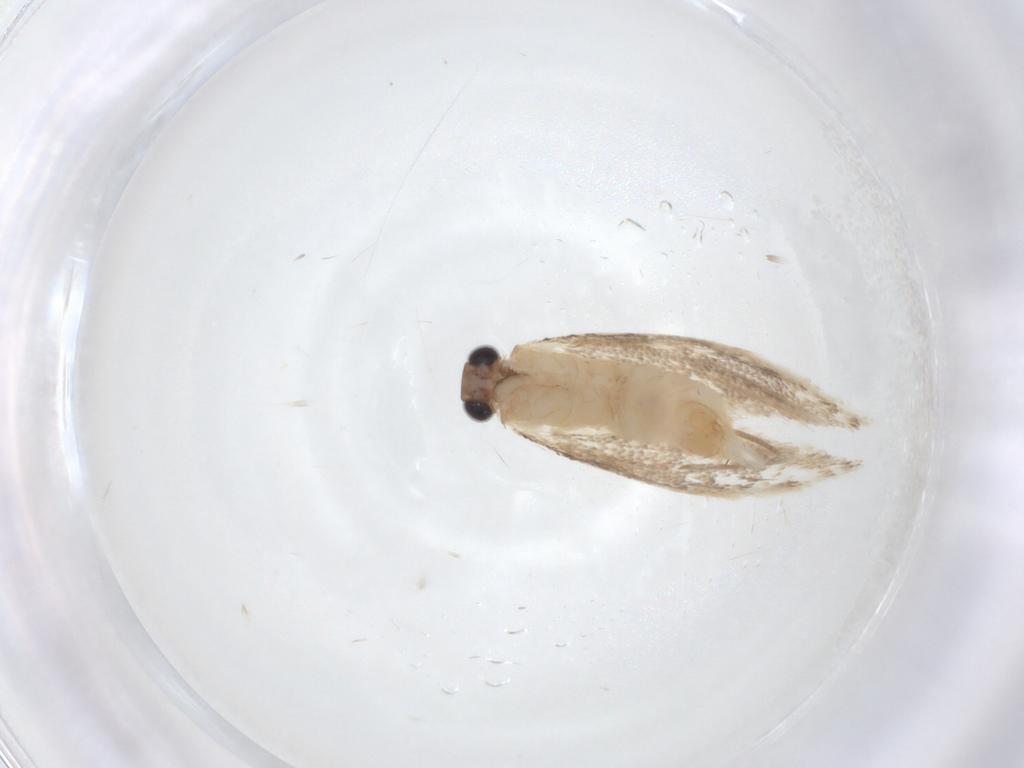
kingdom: Animalia
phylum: Arthropoda
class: Insecta
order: Lepidoptera
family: Tineidae
